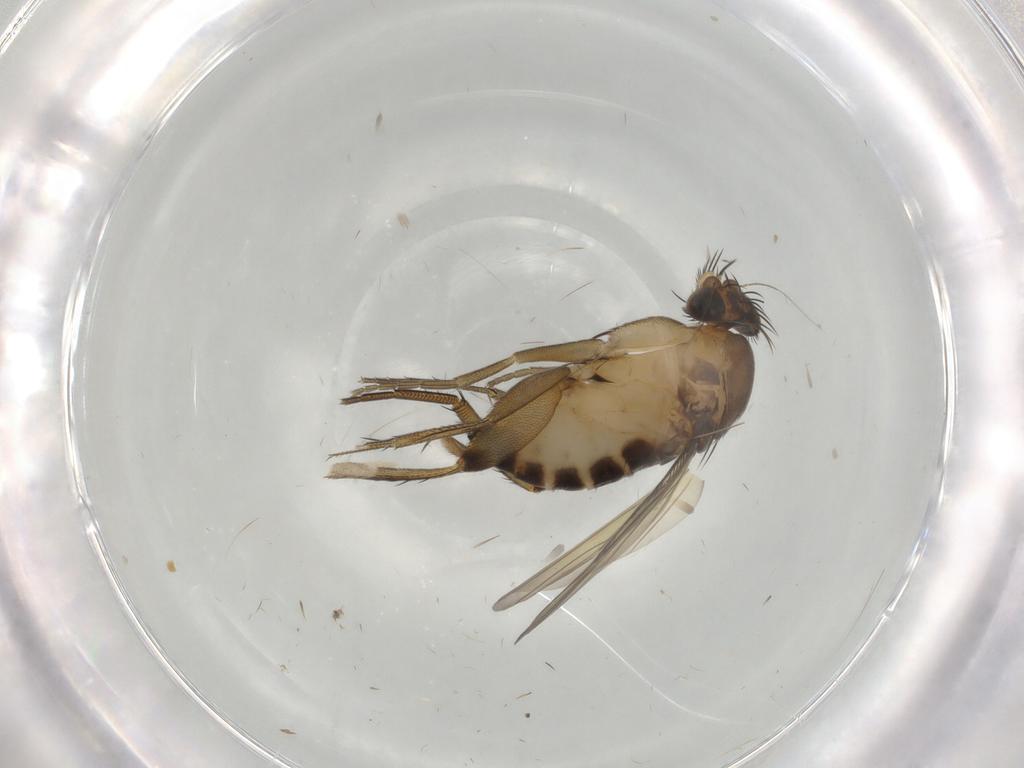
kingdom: Animalia
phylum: Arthropoda
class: Insecta
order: Diptera
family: Phoridae
